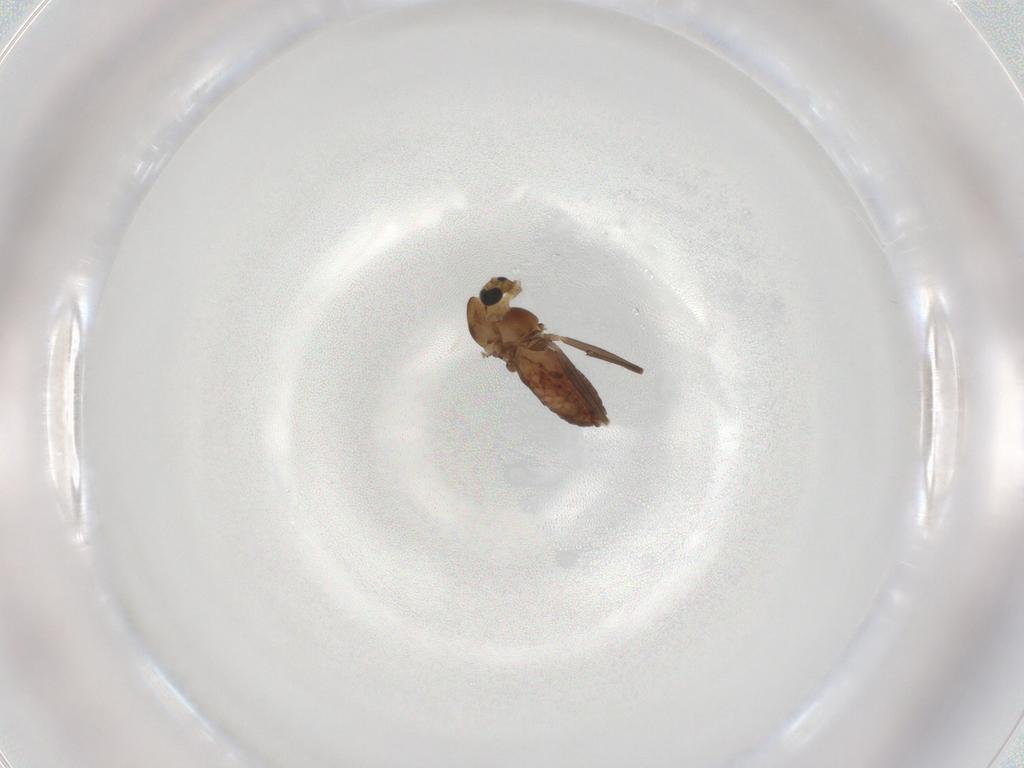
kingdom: Animalia
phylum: Arthropoda
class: Insecta
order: Diptera
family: Chironomidae
